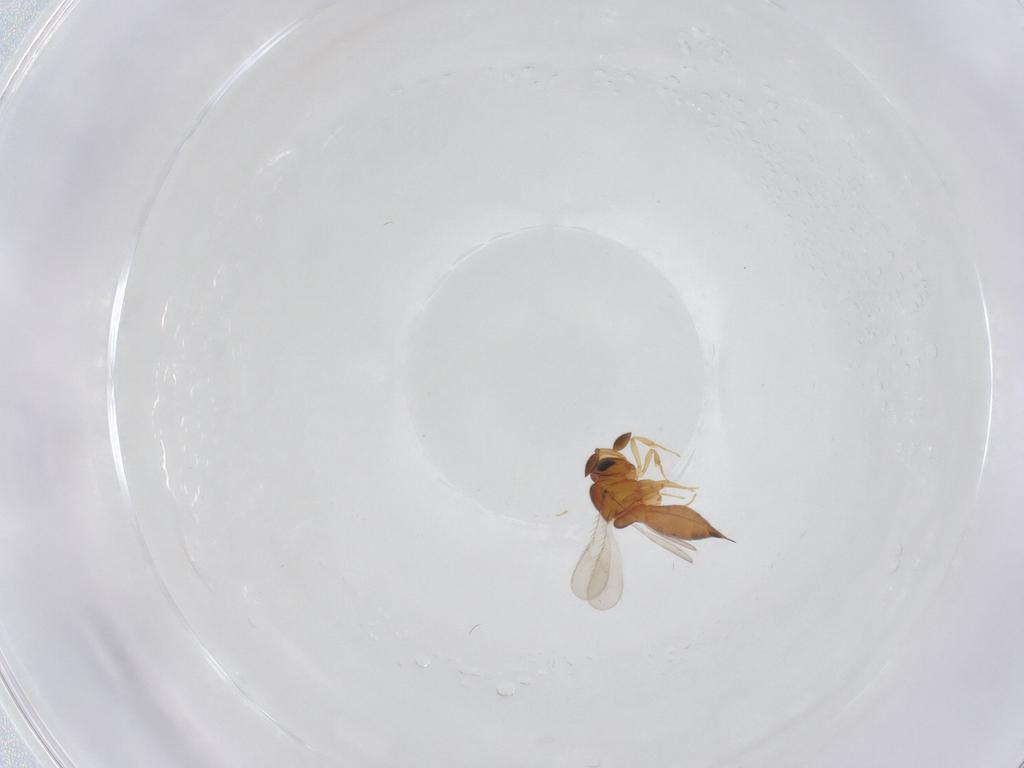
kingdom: Animalia
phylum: Arthropoda
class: Insecta
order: Hymenoptera
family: Scelionidae
